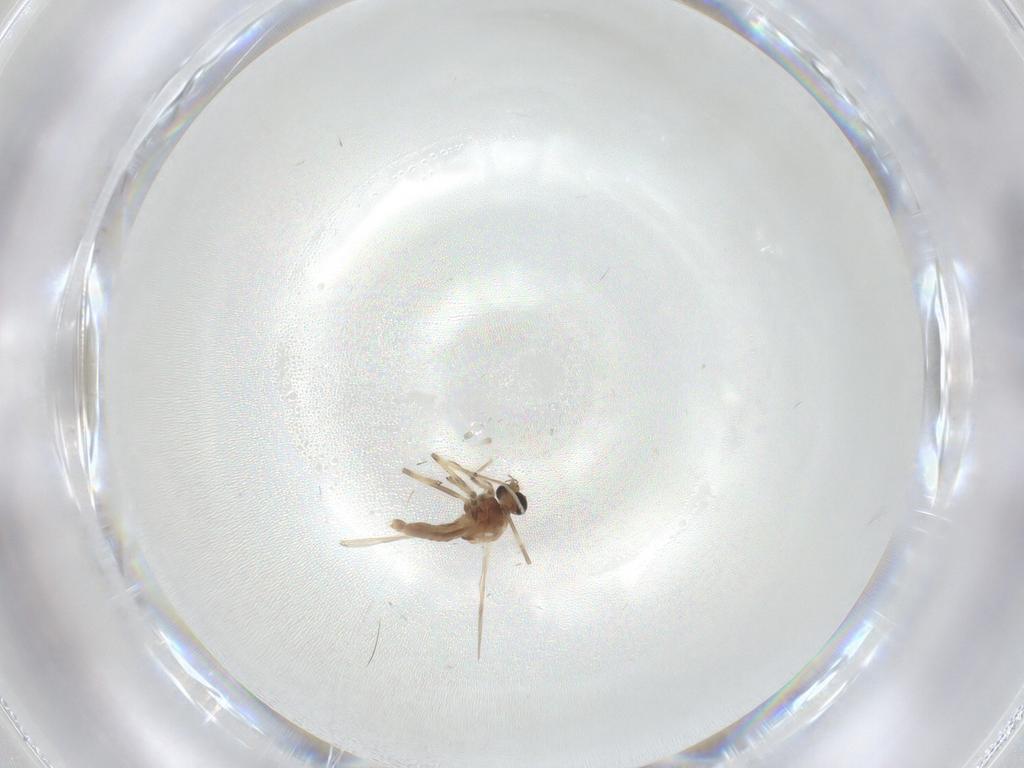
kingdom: Animalia
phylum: Arthropoda
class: Insecta
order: Diptera
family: Chironomidae
